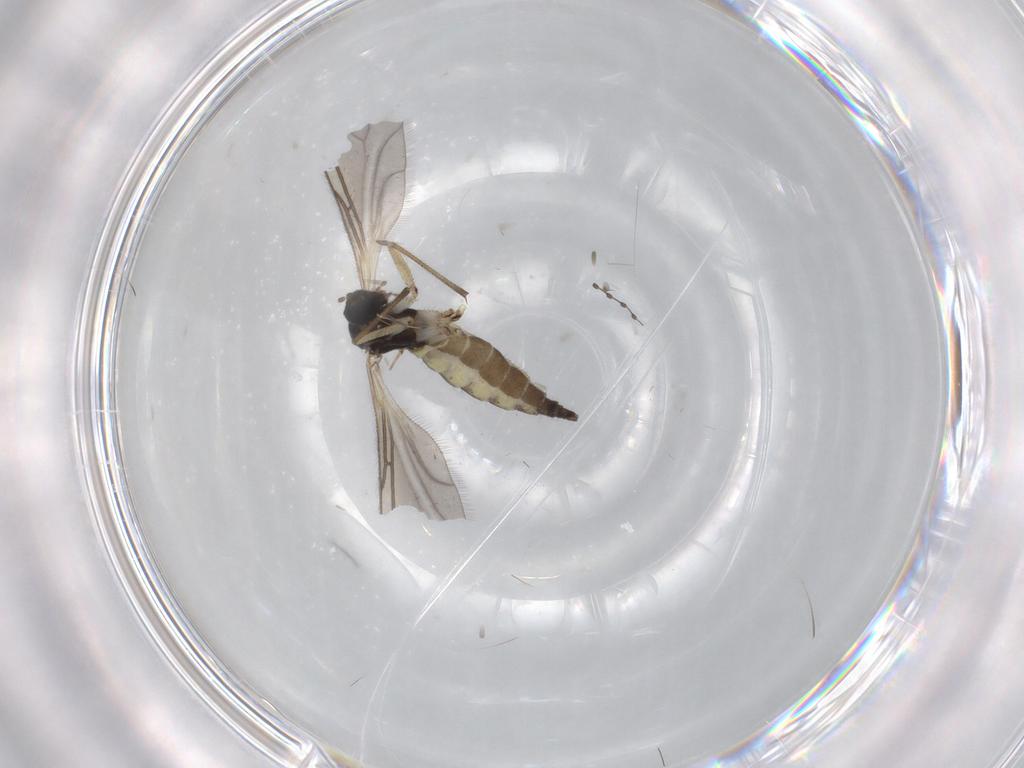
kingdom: Animalia
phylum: Arthropoda
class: Insecta
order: Diptera
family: Sciaridae
